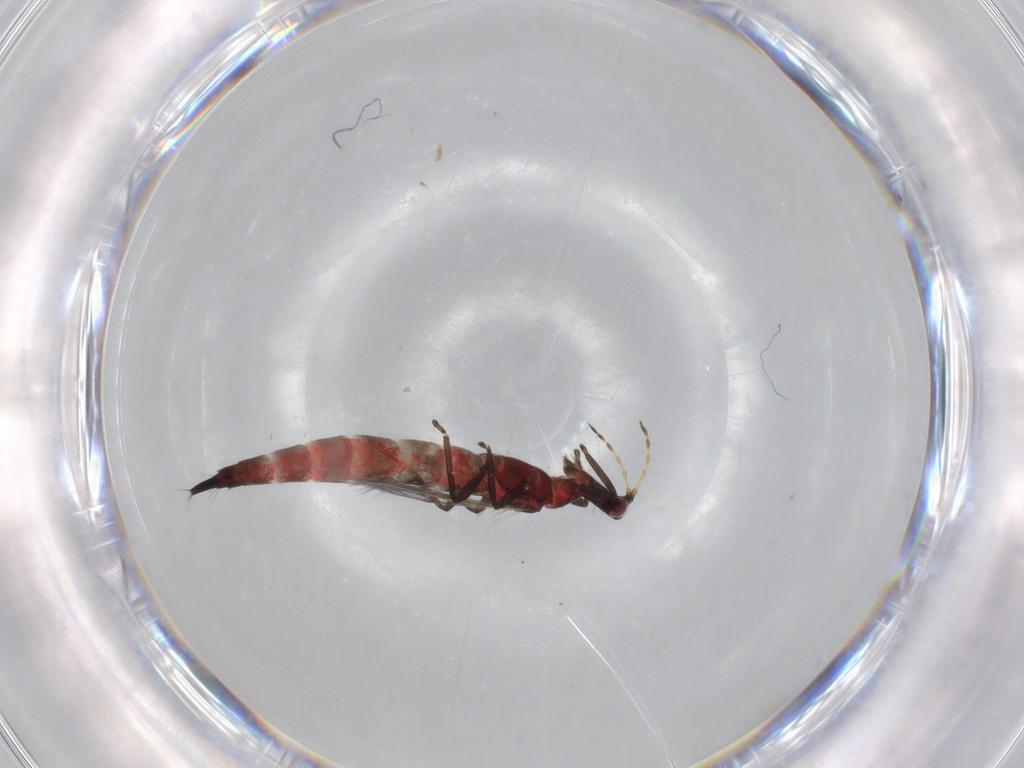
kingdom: Animalia
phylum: Arthropoda
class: Insecta
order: Thysanoptera
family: Phlaeothripidae
